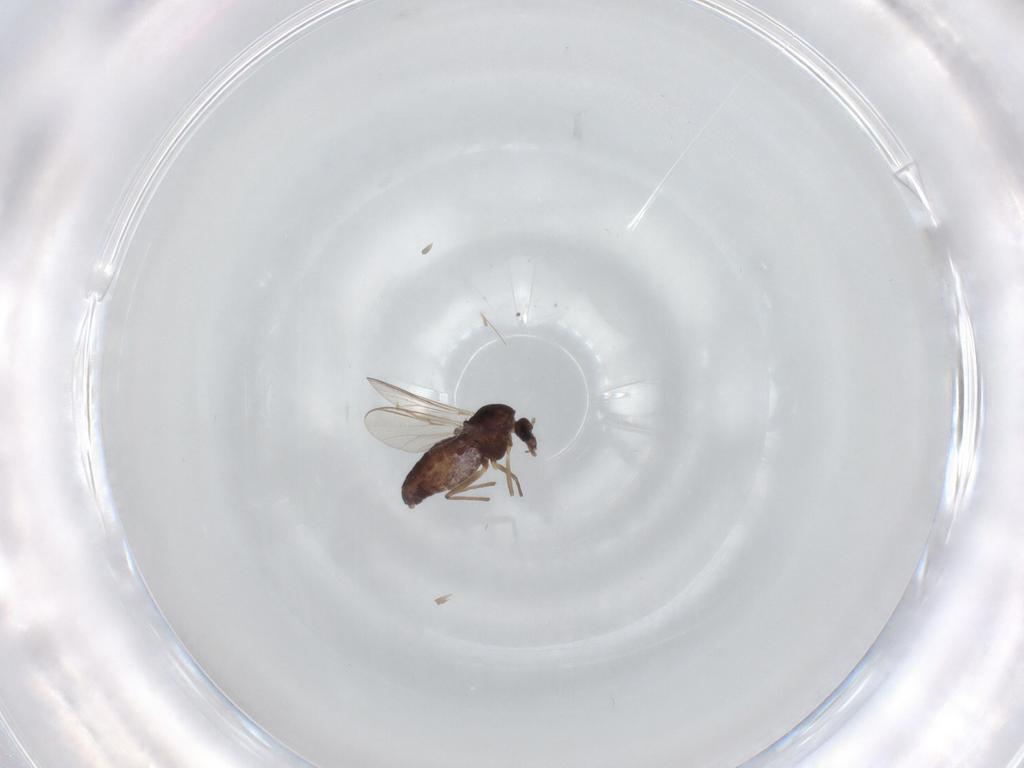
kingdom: Animalia
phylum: Arthropoda
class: Insecta
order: Diptera
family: Chironomidae
